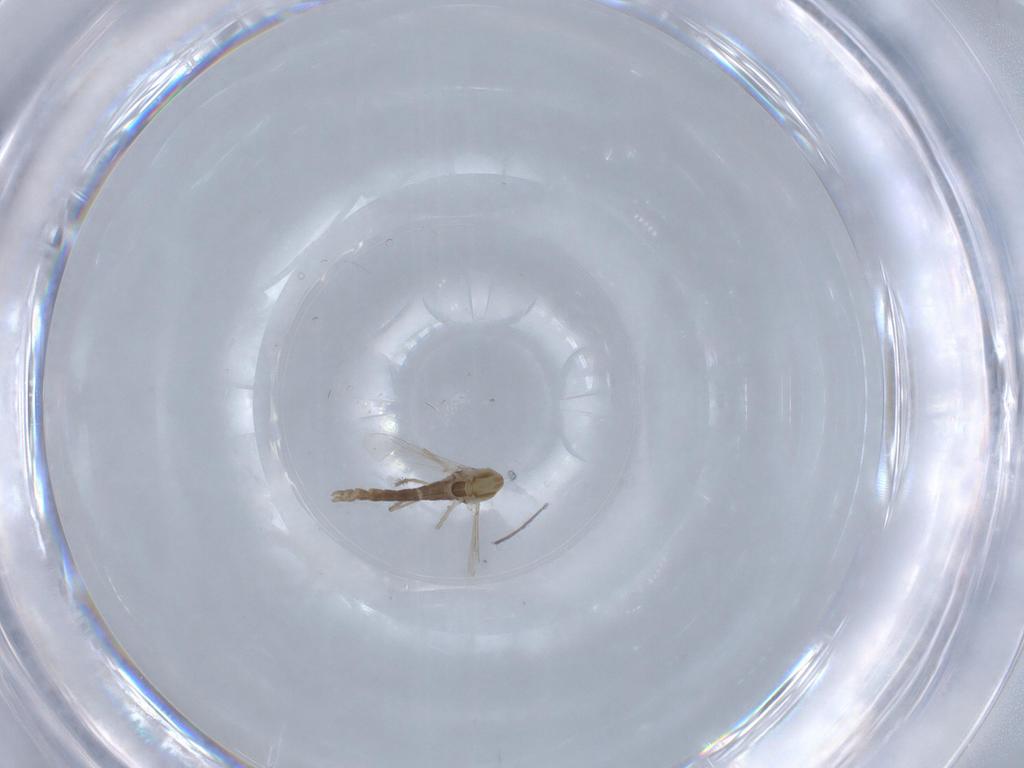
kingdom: Animalia
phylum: Arthropoda
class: Insecta
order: Diptera
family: Chironomidae
